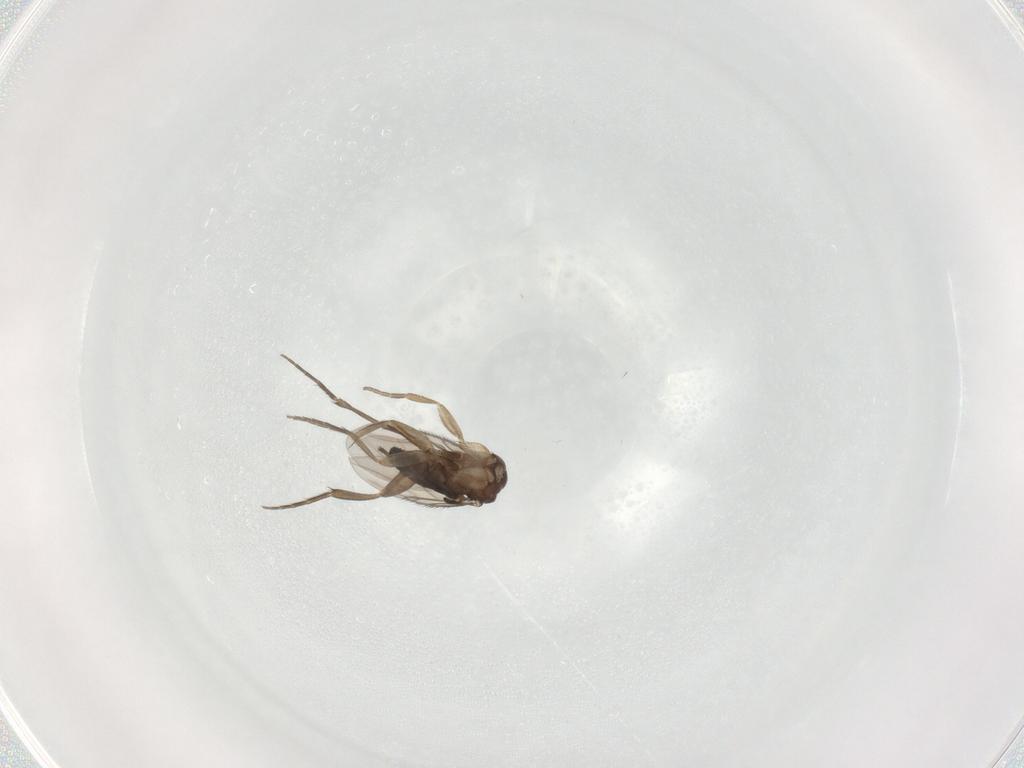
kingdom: Animalia
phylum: Arthropoda
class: Insecta
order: Diptera
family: Phoridae
